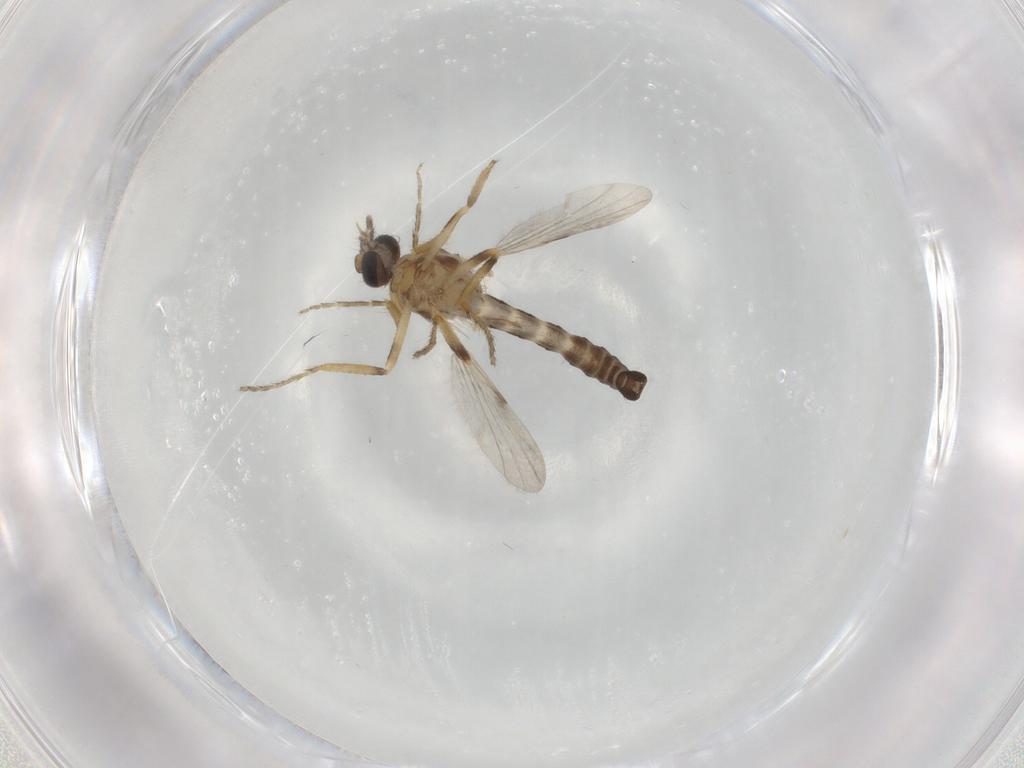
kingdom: Animalia
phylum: Arthropoda
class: Insecta
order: Diptera
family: Ceratopogonidae
